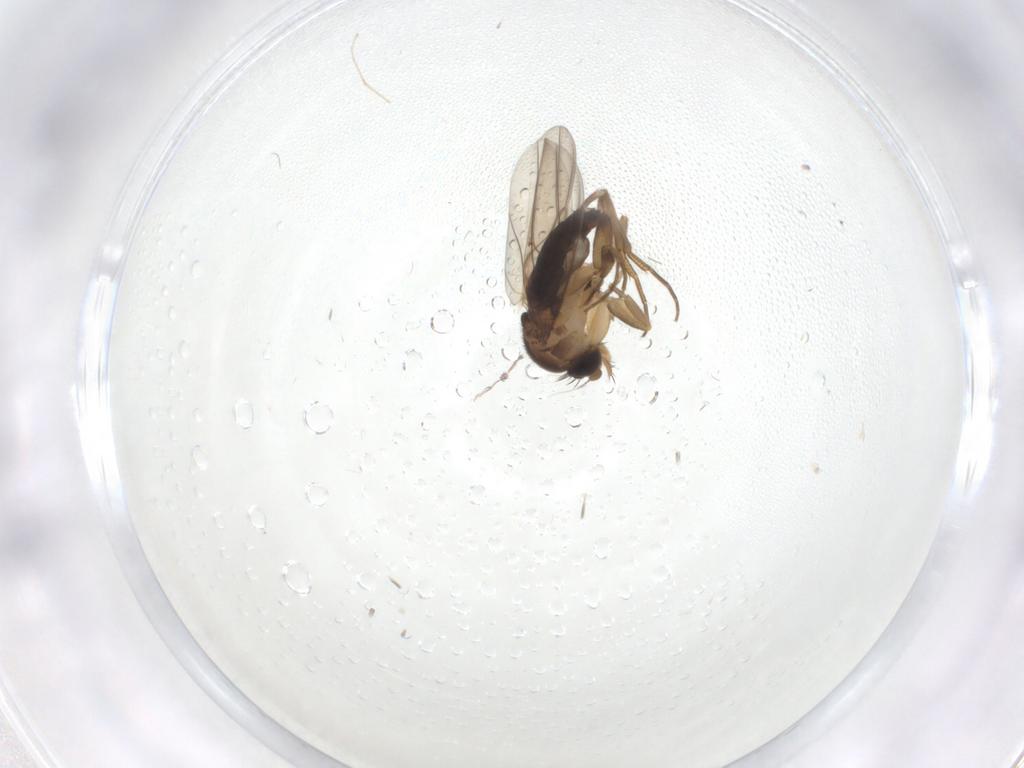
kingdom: Animalia
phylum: Arthropoda
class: Insecta
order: Diptera
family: Phoridae
